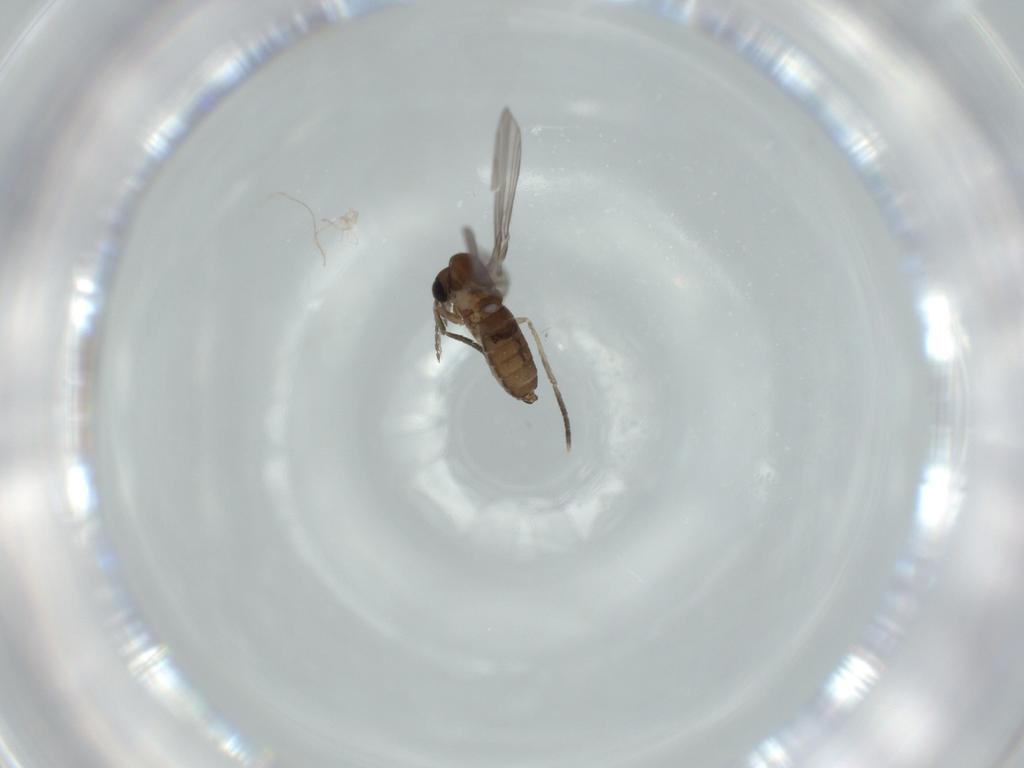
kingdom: Animalia
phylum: Arthropoda
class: Insecta
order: Diptera
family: Psychodidae
